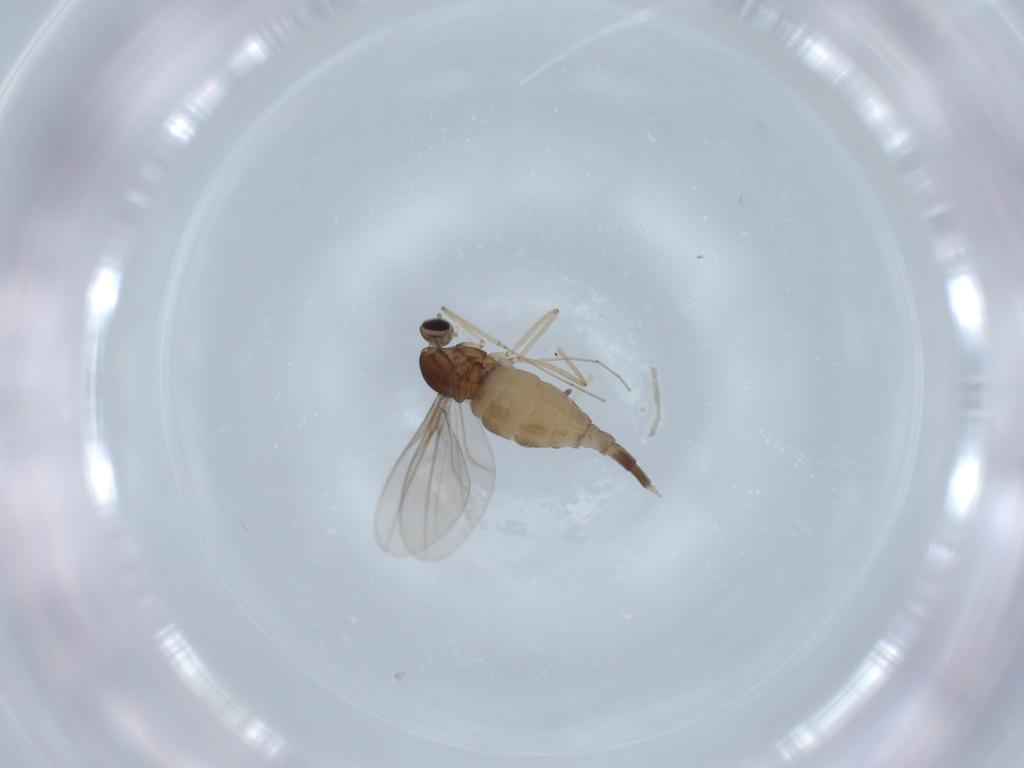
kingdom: Animalia
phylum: Arthropoda
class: Insecta
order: Diptera
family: Cecidomyiidae
